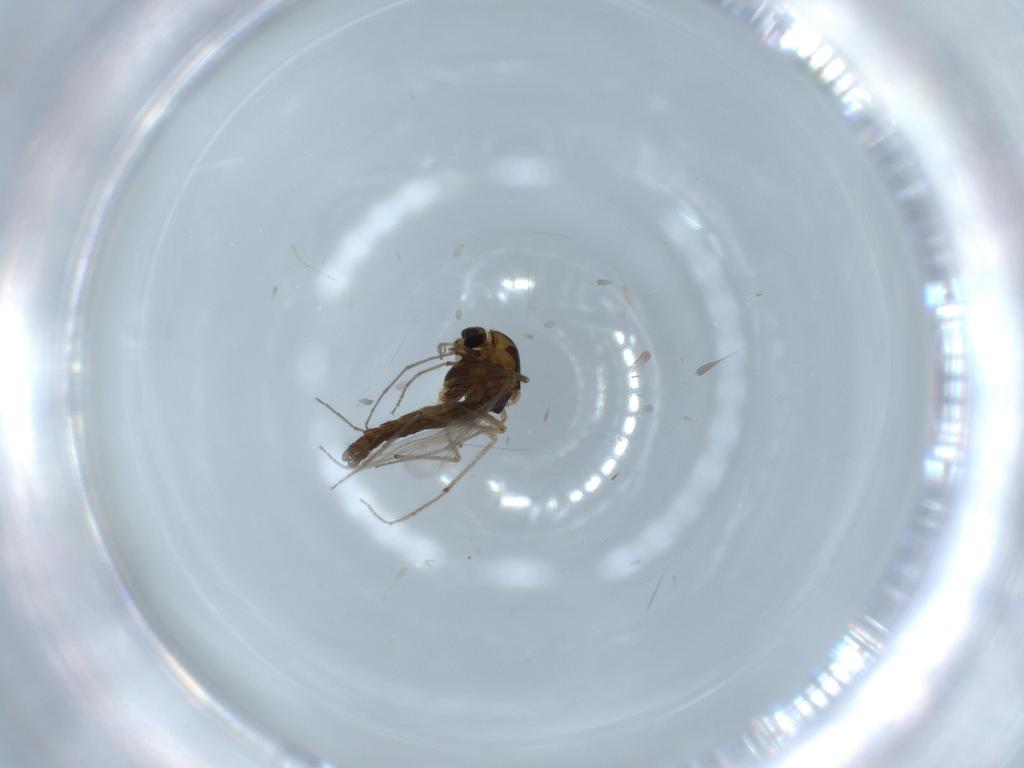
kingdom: Animalia
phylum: Arthropoda
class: Insecta
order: Diptera
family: Chironomidae
